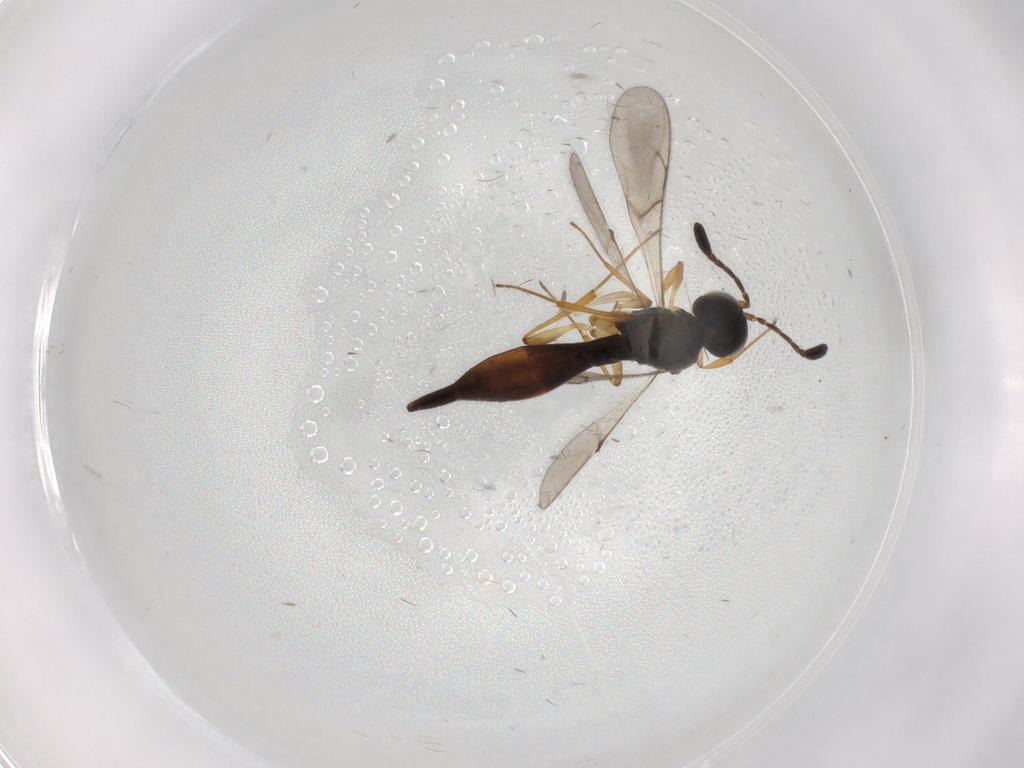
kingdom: Animalia
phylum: Arthropoda
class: Insecta
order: Hymenoptera
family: Scelionidae
